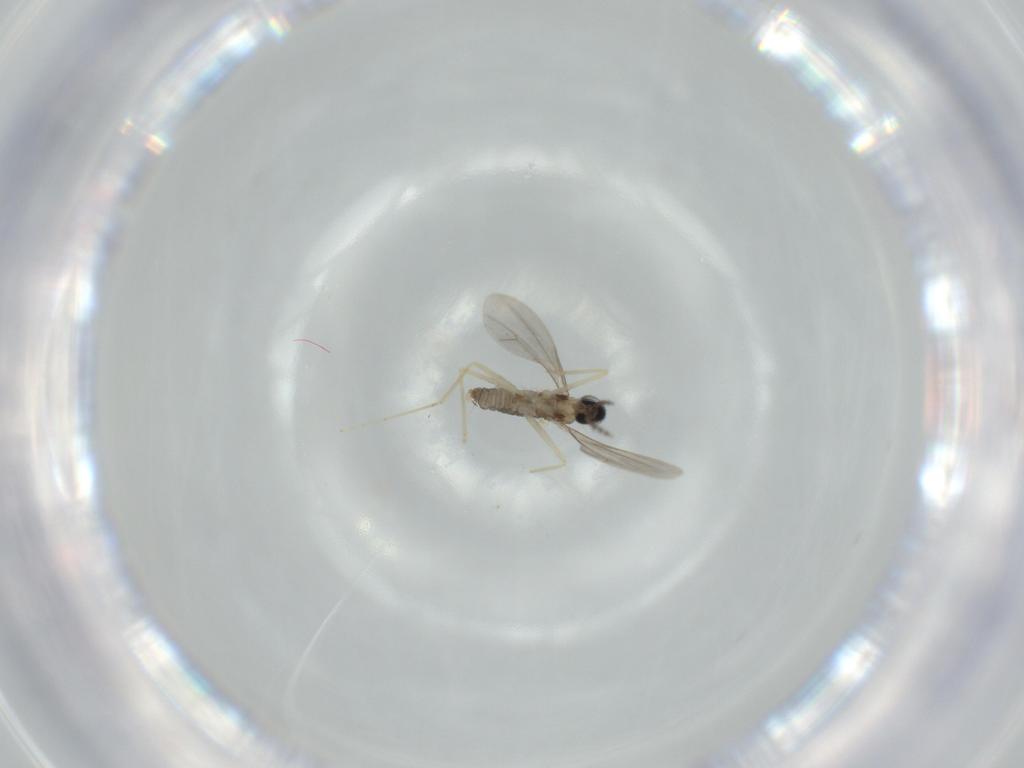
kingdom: Animalia
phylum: Arthropoda
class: Insecta
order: Diptera
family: Cecidomyiidae
